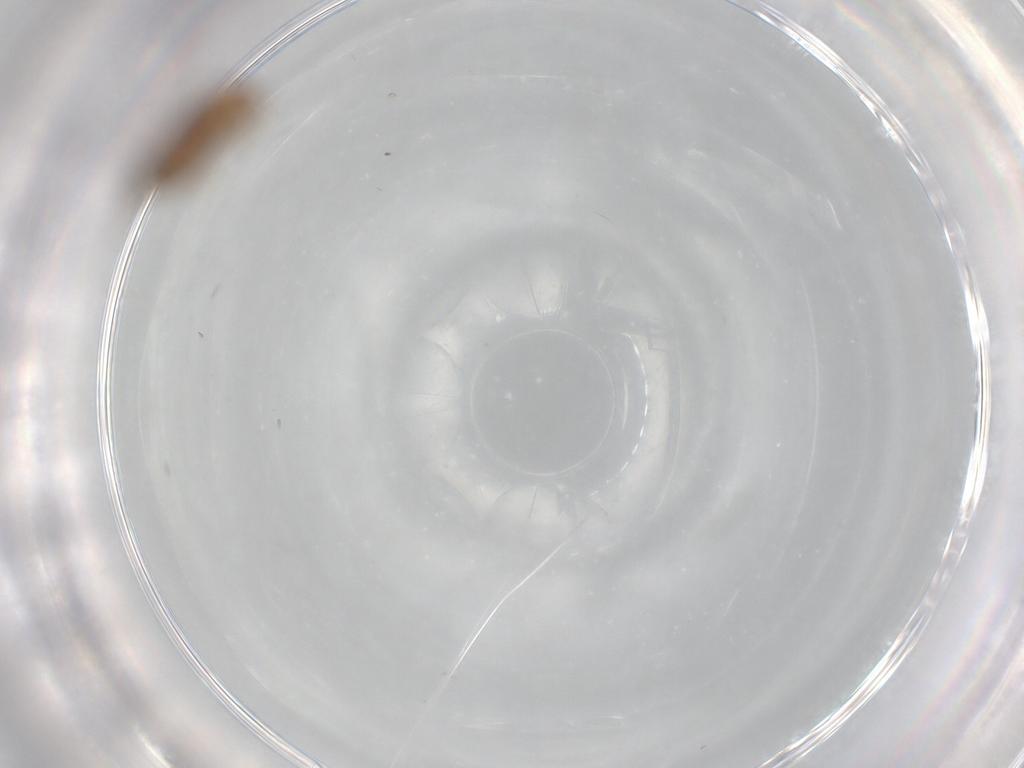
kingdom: Animalia
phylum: Arthropoda
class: Insecta
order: Psocodea
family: Ectopsocidae
